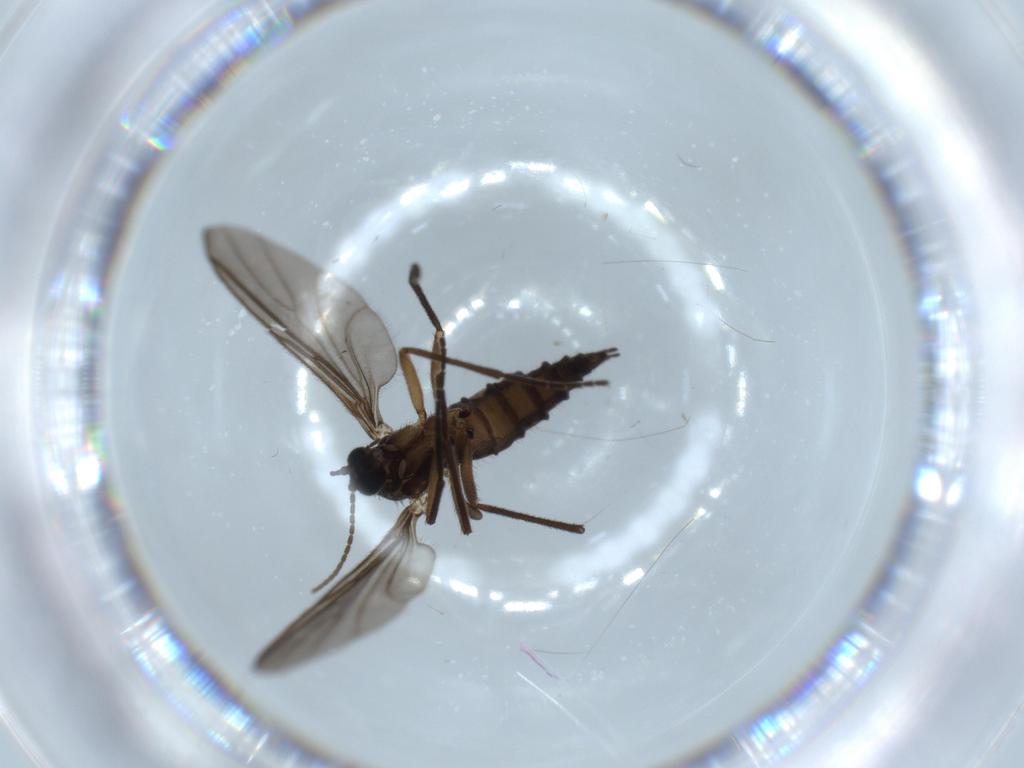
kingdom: Animalia
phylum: Arthropoda
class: Insecta
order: Diptera
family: Sciaridae
